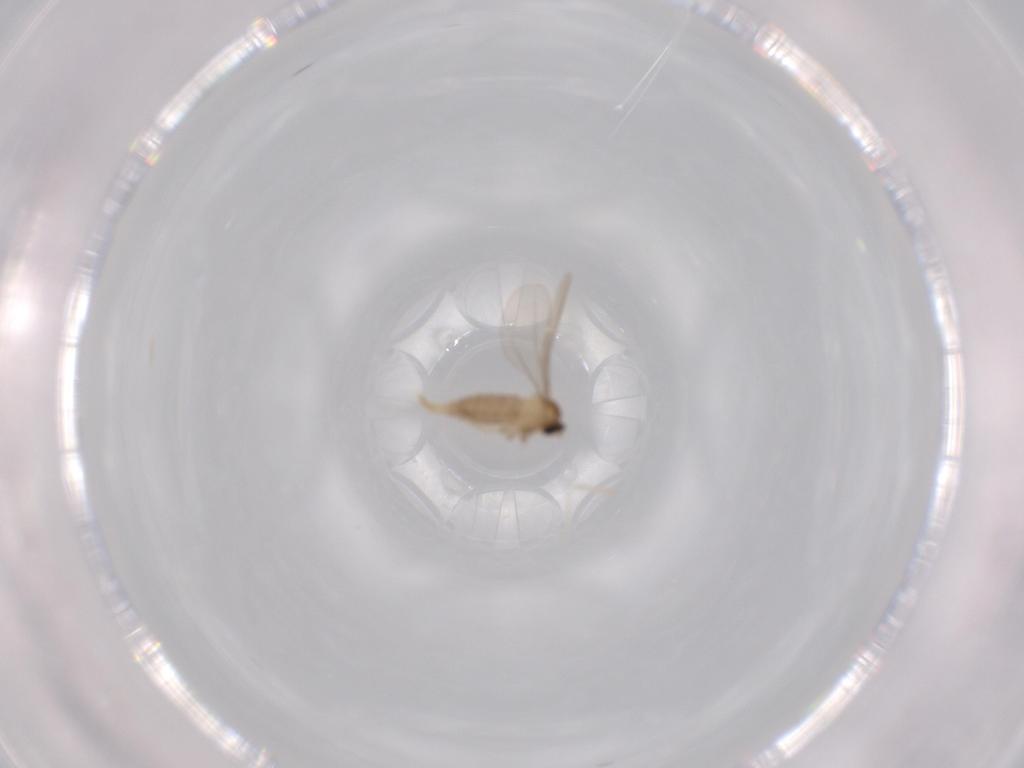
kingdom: Animalia
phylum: Arthropoda
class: Insecta
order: Diptera
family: Cecidomyiidae
